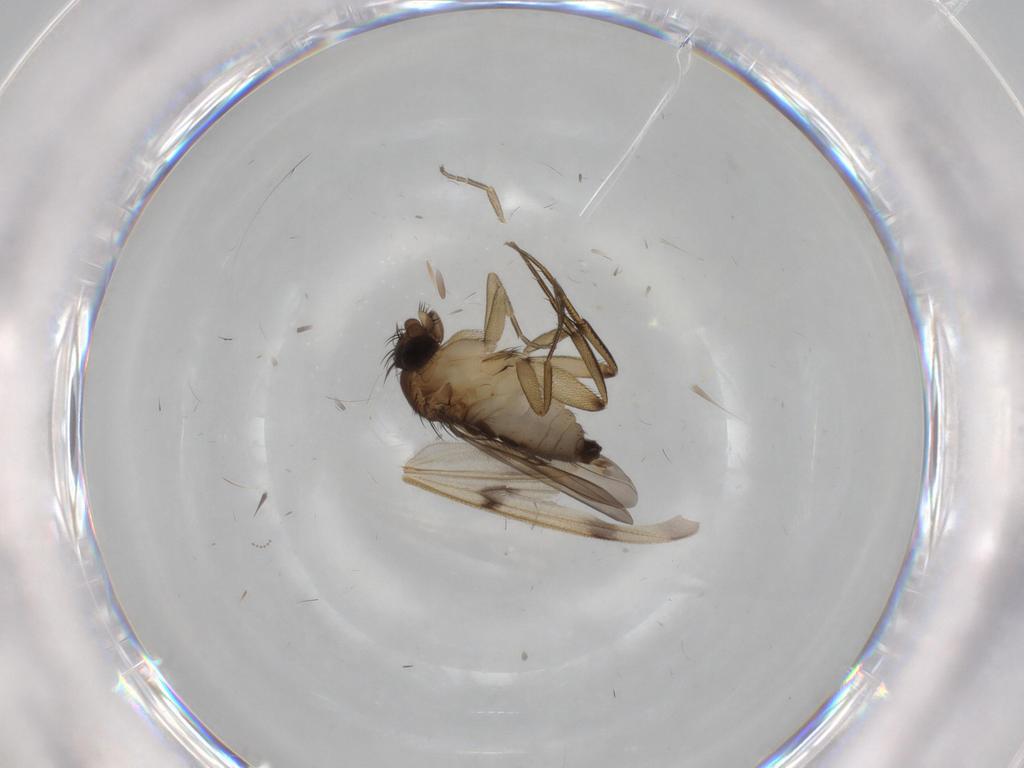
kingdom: Animalia
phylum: Arthropoda
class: Insecta
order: Diptera
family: Phoridae
